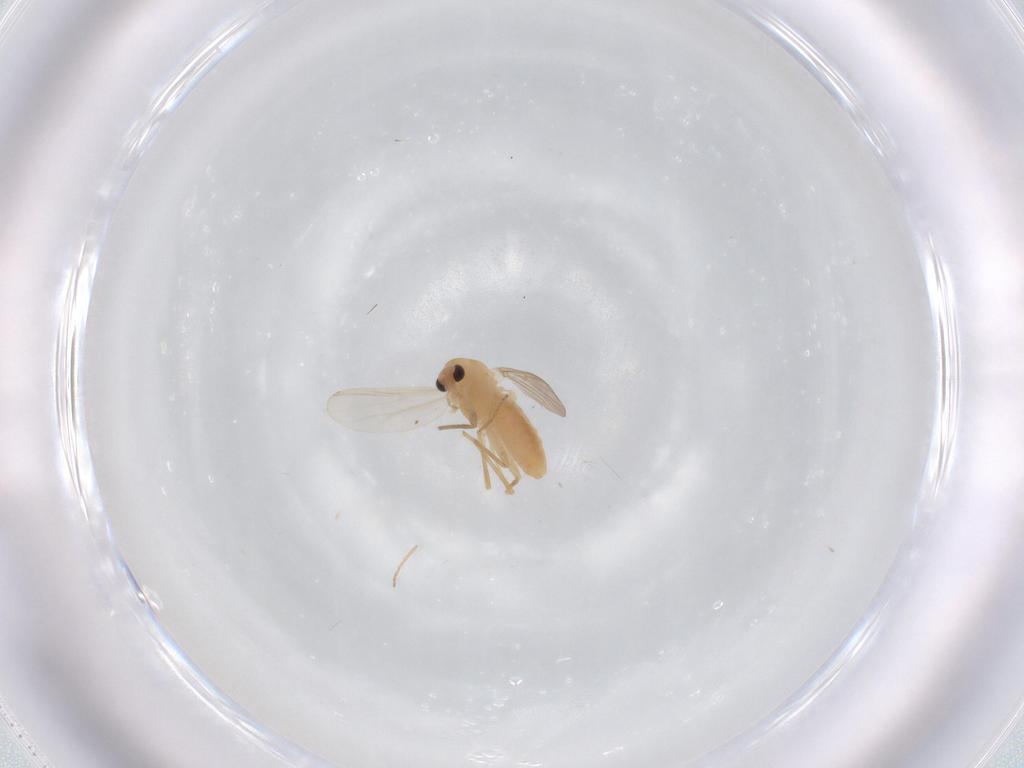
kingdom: Animalia
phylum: Arthropoda
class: Insecta
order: Diptera
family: Chironomidae
